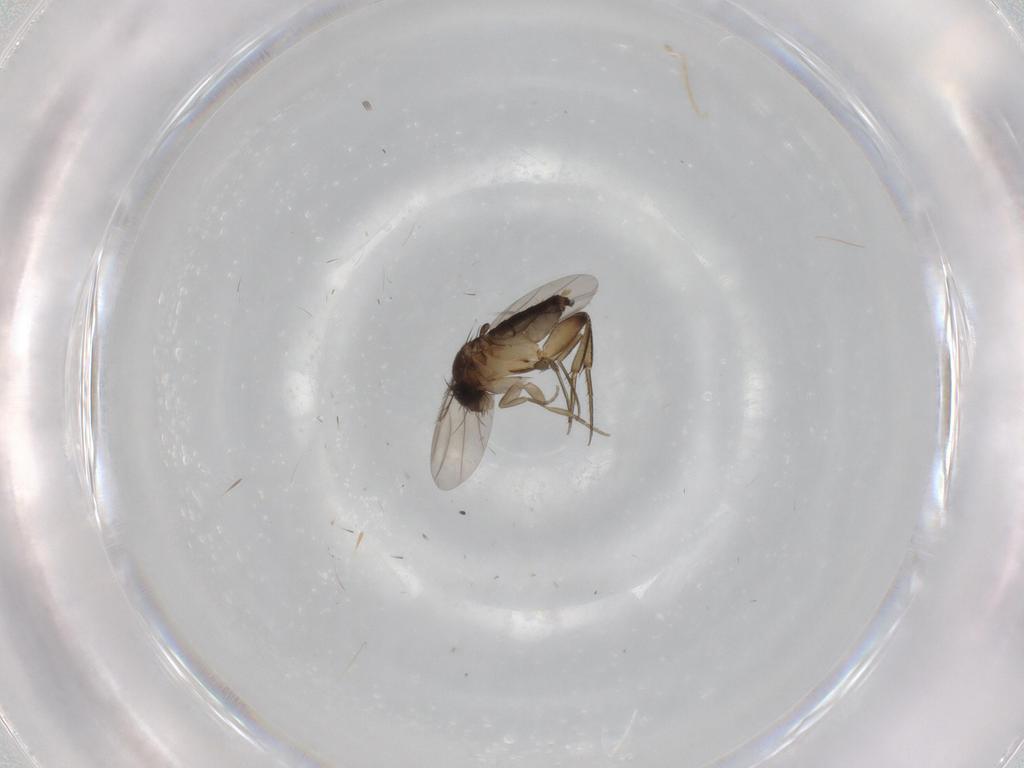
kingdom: Animalia
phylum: Arthropoda
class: Insecta
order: Diptera
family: Phoridae
